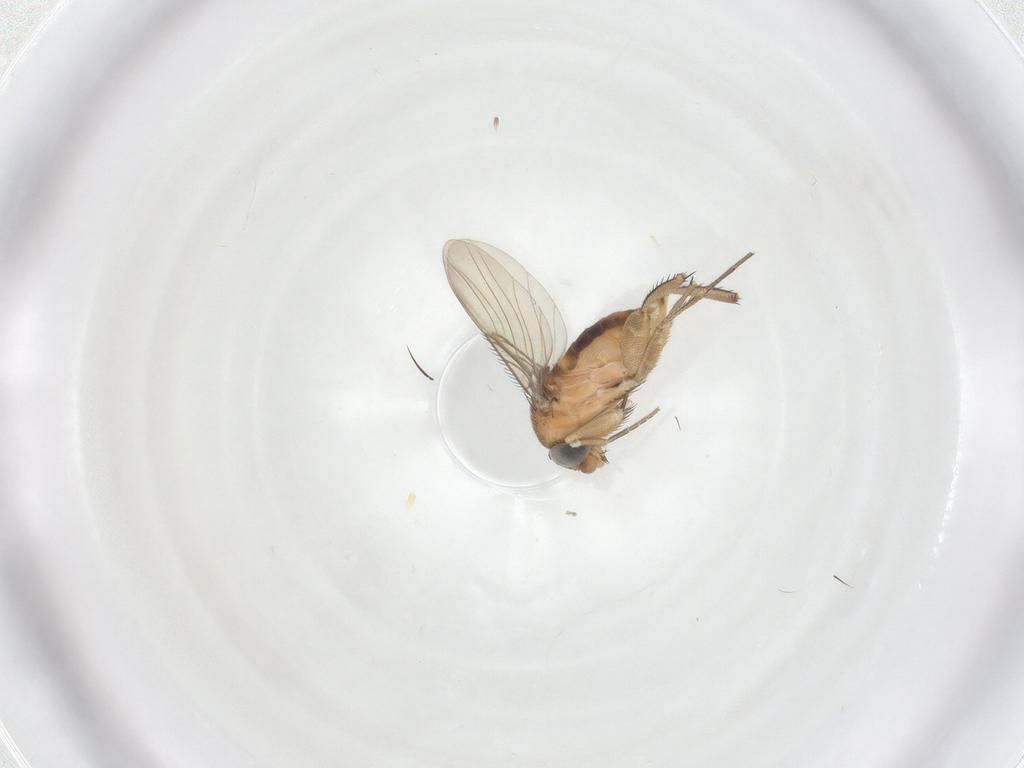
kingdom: Animalia
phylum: Arthropoda
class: Insecta
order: Diptera
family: Phoridae
